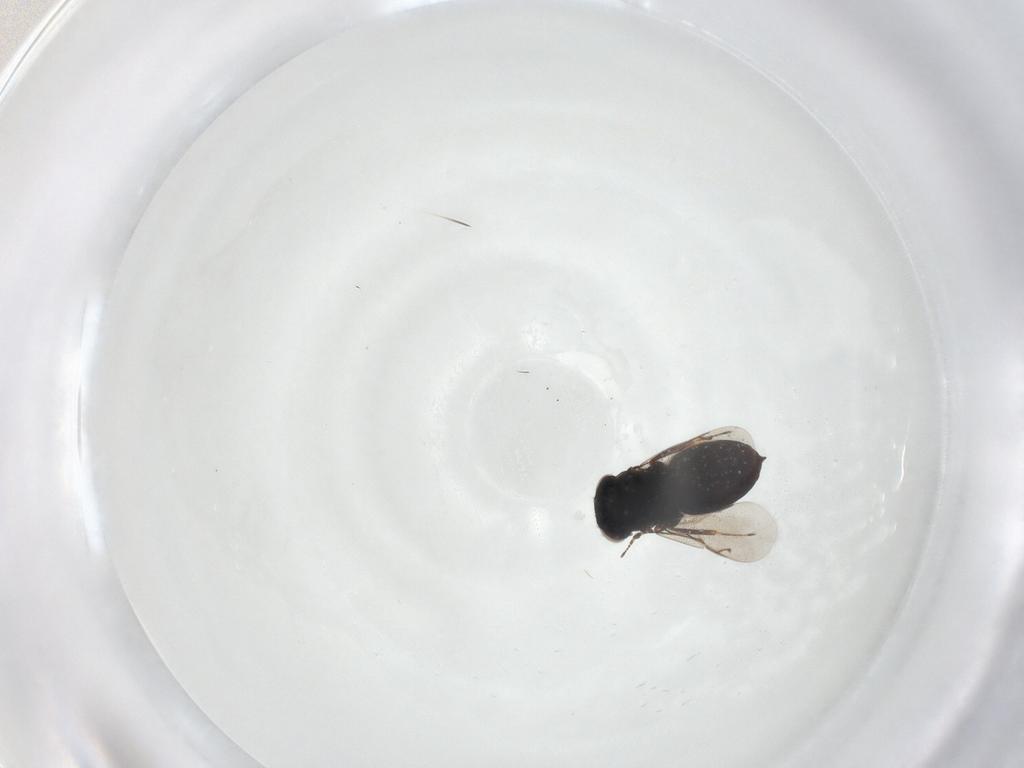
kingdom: Animalia
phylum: Arthropoda
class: Insecta
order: Hymenoptera
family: Eunotidae
